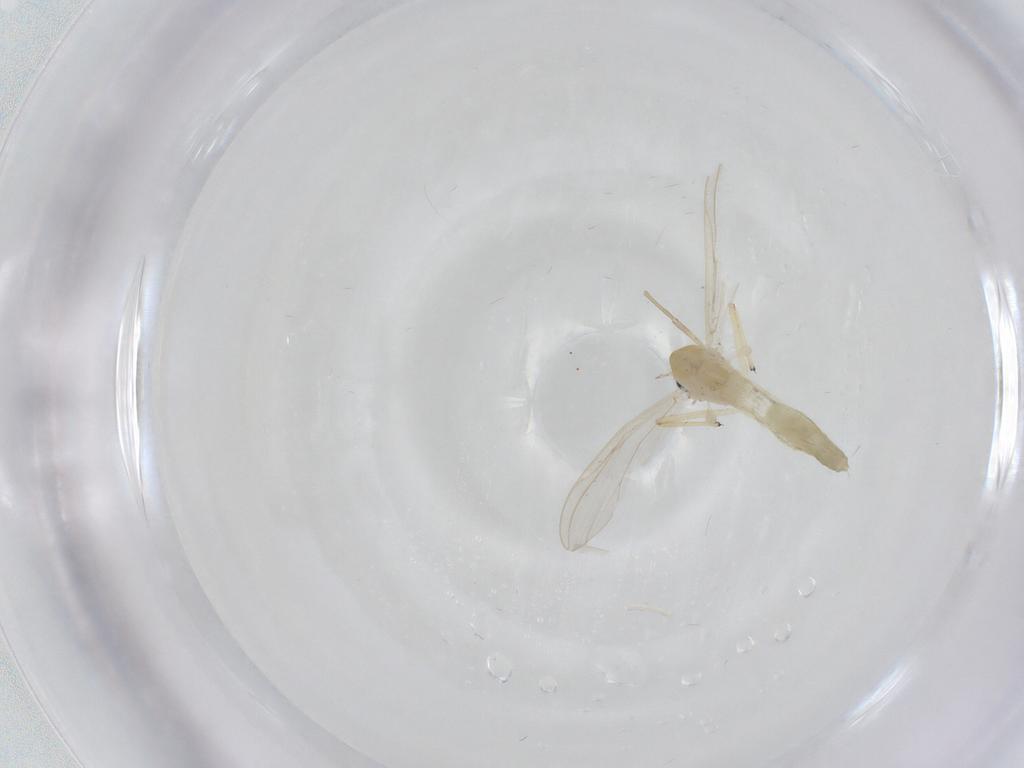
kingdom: Animalia
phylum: Arthropoda
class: Insecta
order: Diptera
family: Chironomidae
